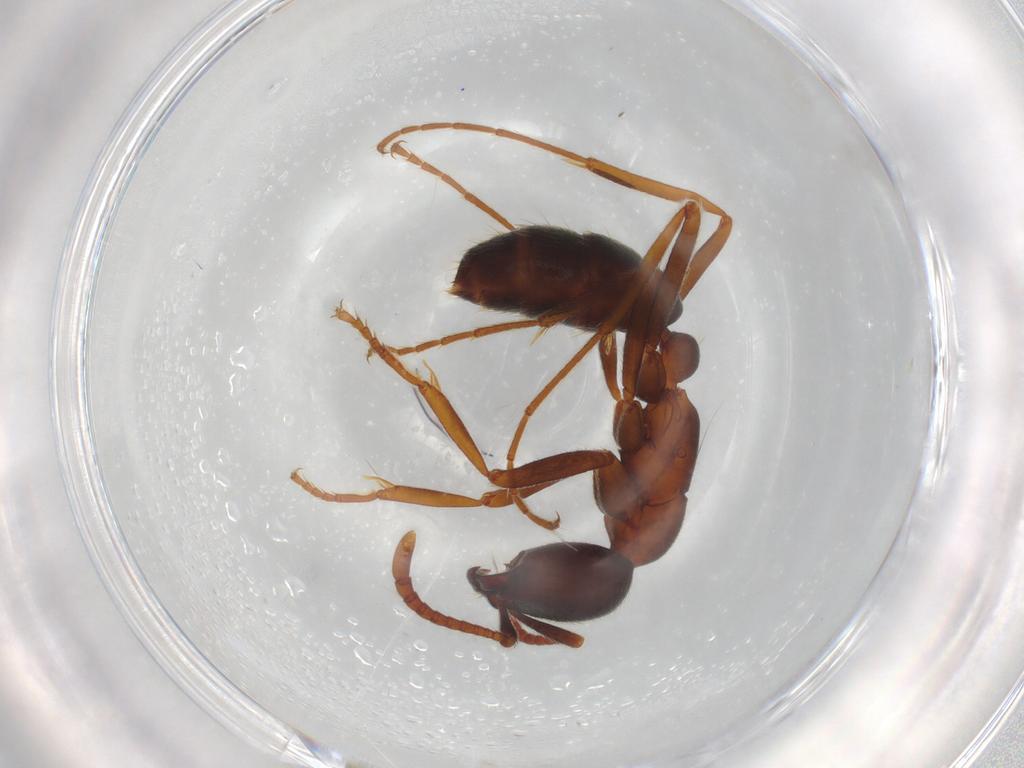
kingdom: Animalia
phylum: Arthropoda
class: Insecta
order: Hymenoptera
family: Formicidae
